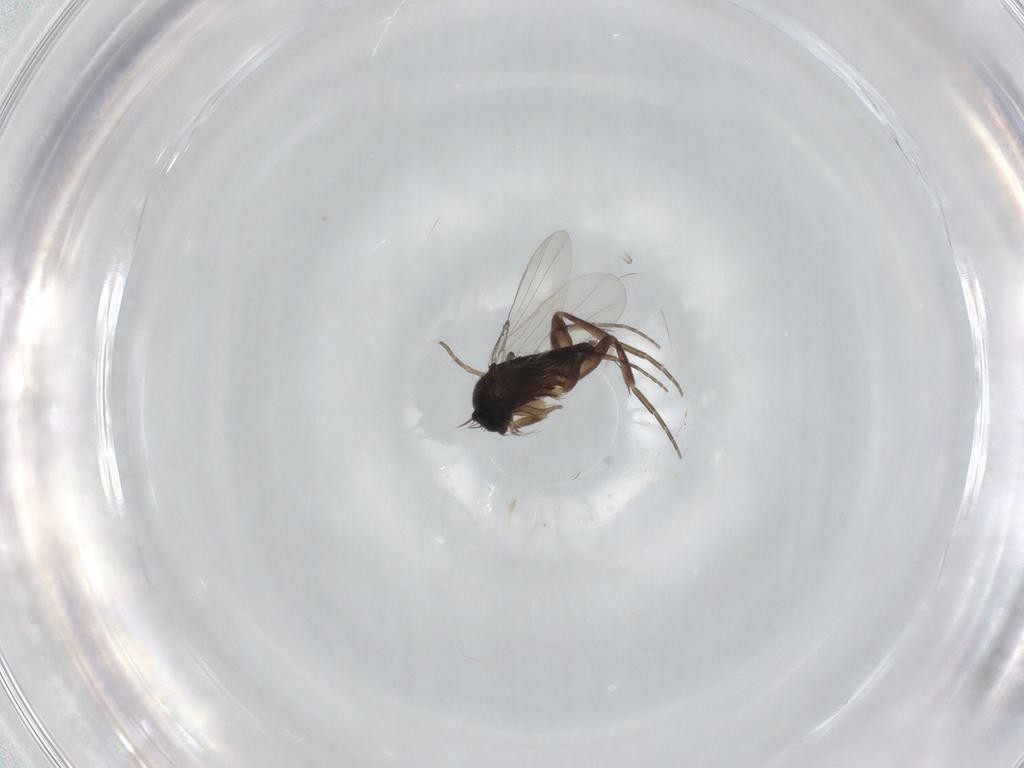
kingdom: Animalia
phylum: Arthropoda
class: Insecta
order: Diptera
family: Phoridae
